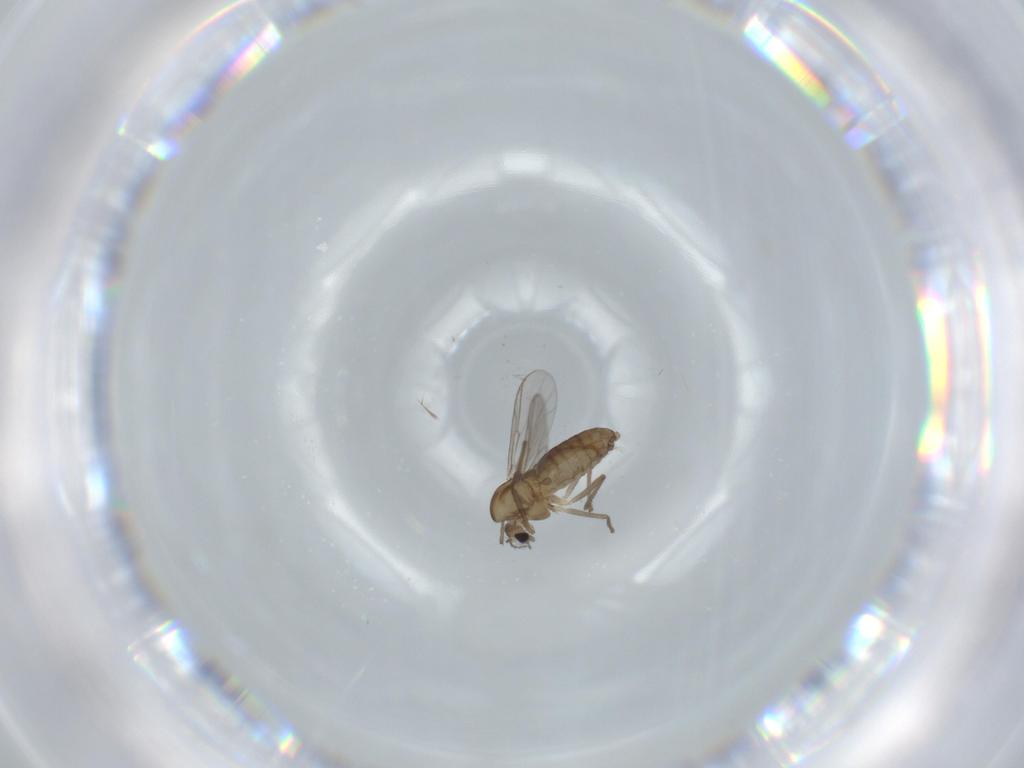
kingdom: Animalia
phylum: Arthropoda
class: Insecta
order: Diptera
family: Chironomidae
